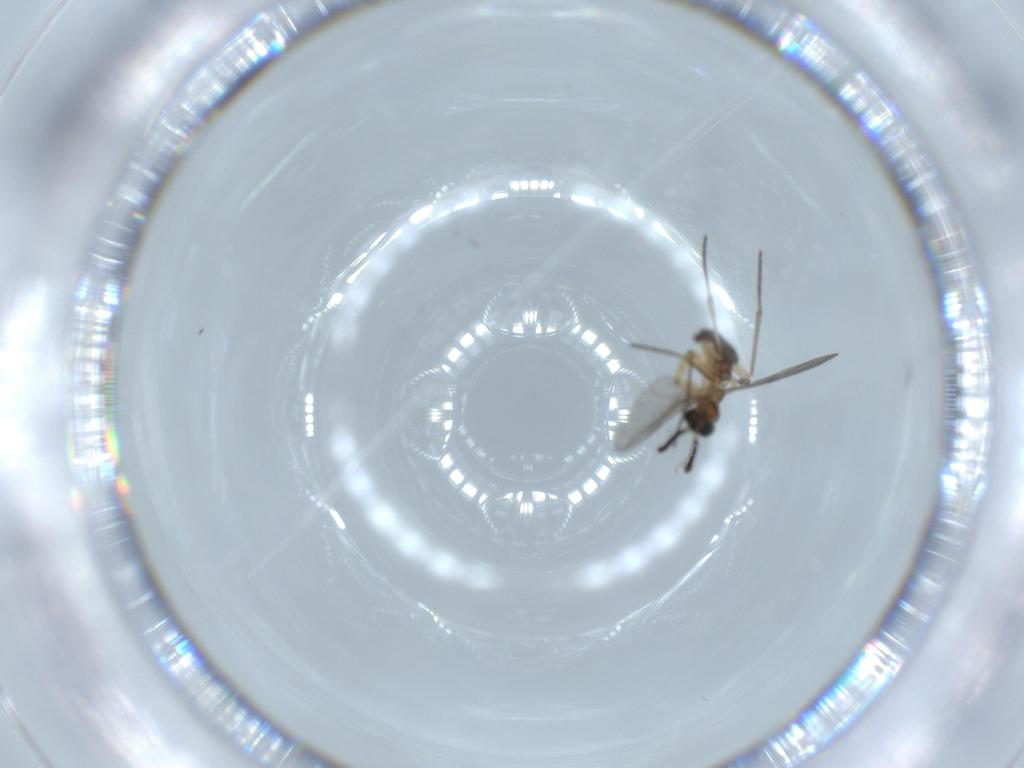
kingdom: Animalia
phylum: Arthropoda
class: Insecta
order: Diptera
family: Sciaridae
